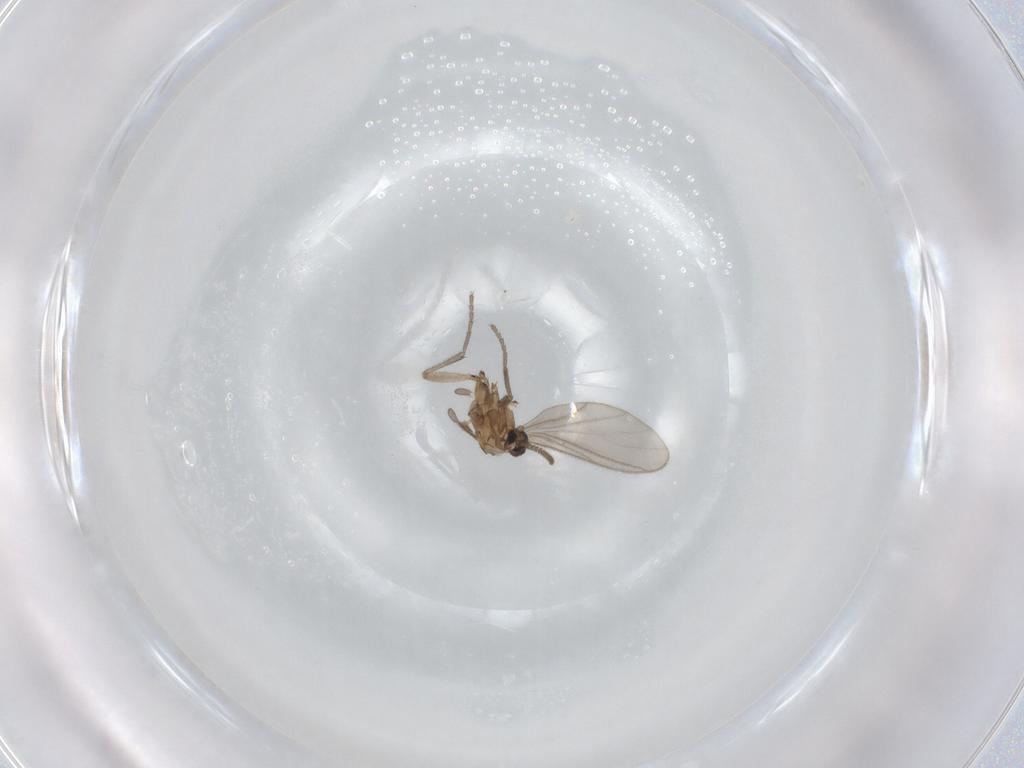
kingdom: Animalia
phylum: Arthropoda
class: Insecta
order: Diptera
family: Sciaridae
